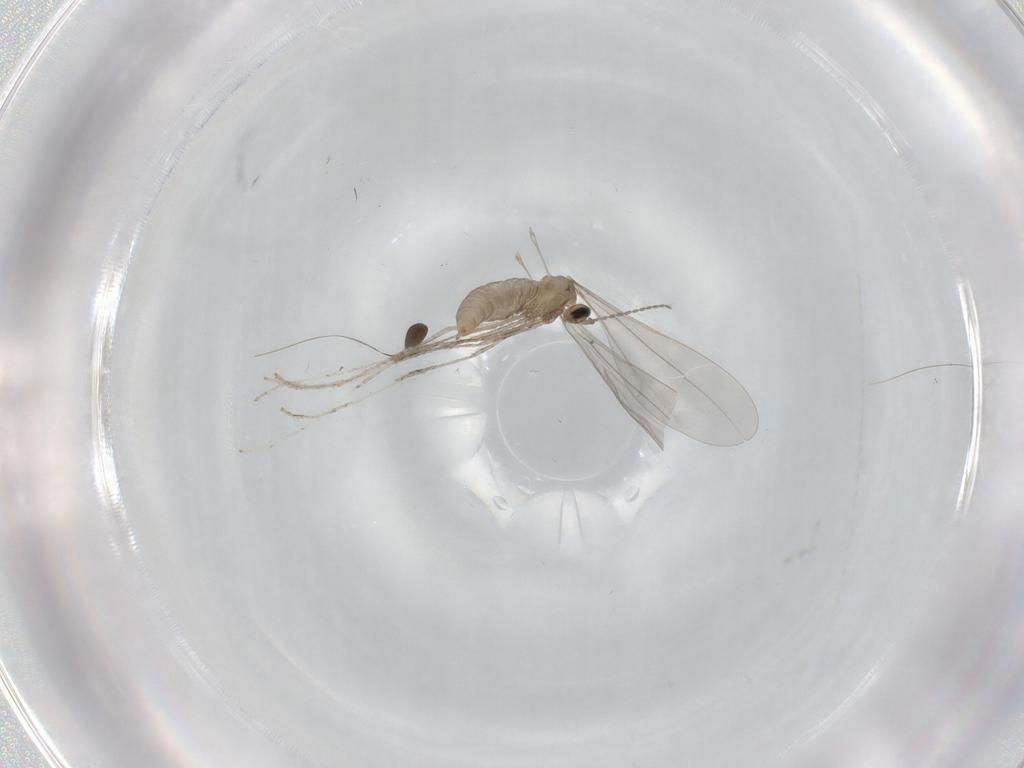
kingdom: Animalia
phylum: Arthropoda
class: Insecta
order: Diptera
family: Cecidomyiidae
